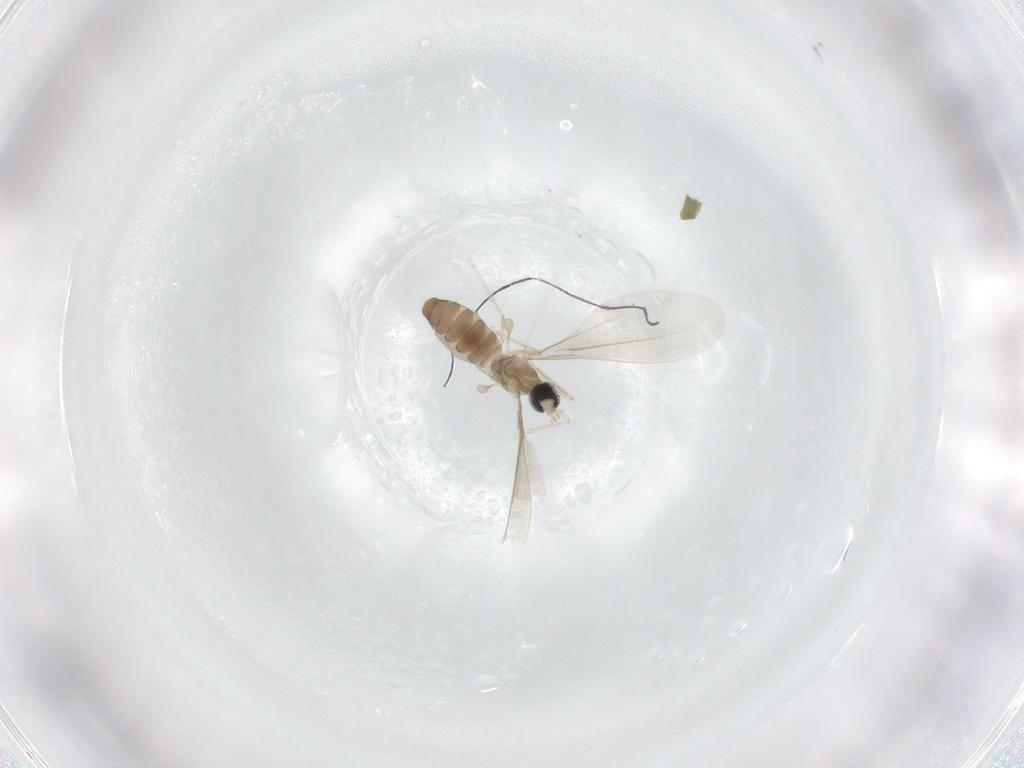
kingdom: Animalia
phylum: Arthropoda
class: Insecta
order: Diptera
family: Cecidomyiidae
